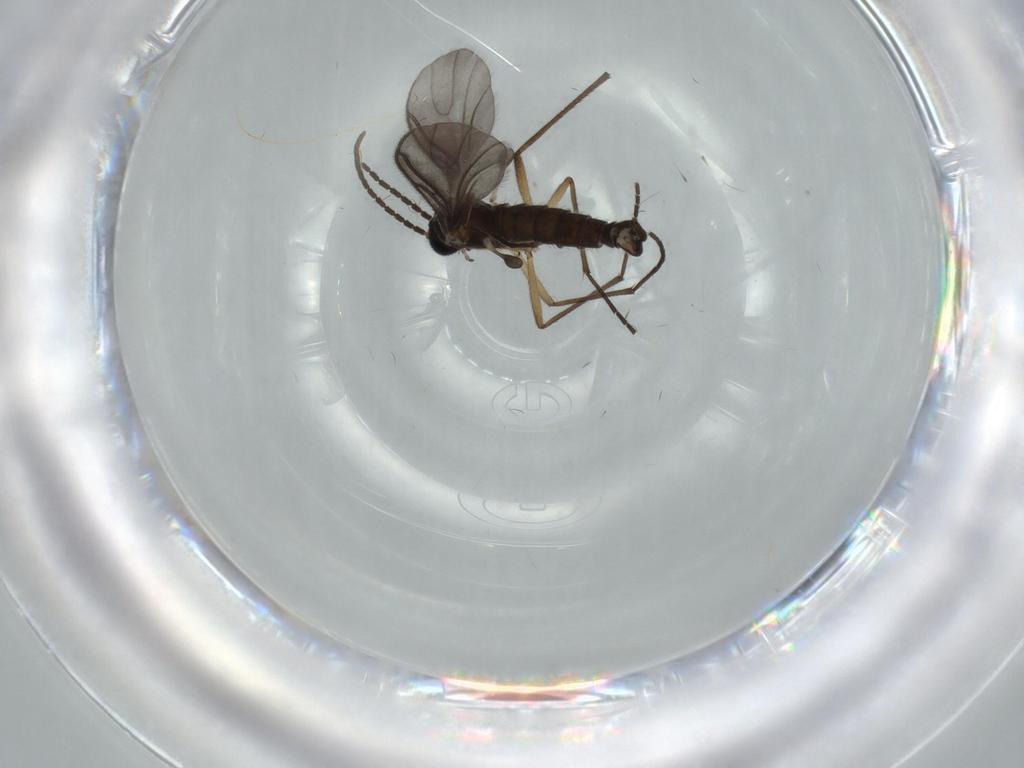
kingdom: Animalia
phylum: Arthropoda
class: Insecta
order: Diptera
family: Sciaridae
